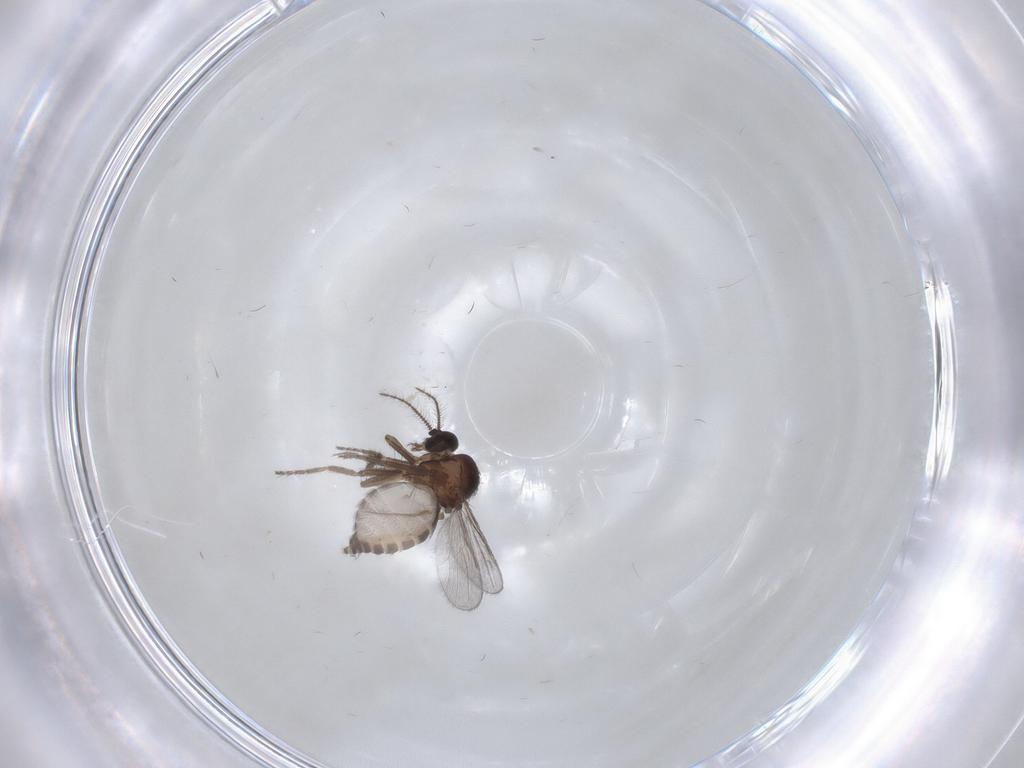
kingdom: Animalia
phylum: Arthropoda
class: Insecta
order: Diptera
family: Ceratopogonidae
